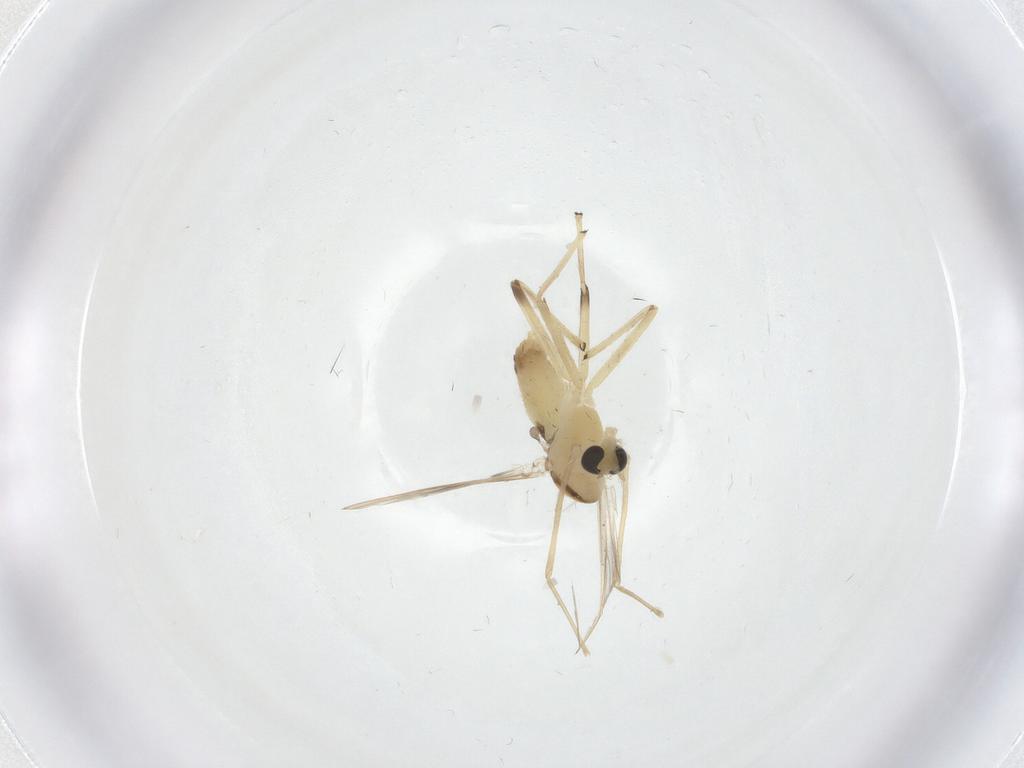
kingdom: Animalia
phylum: Arthropoda
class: Insecta
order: Diptera
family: Chironomidae
